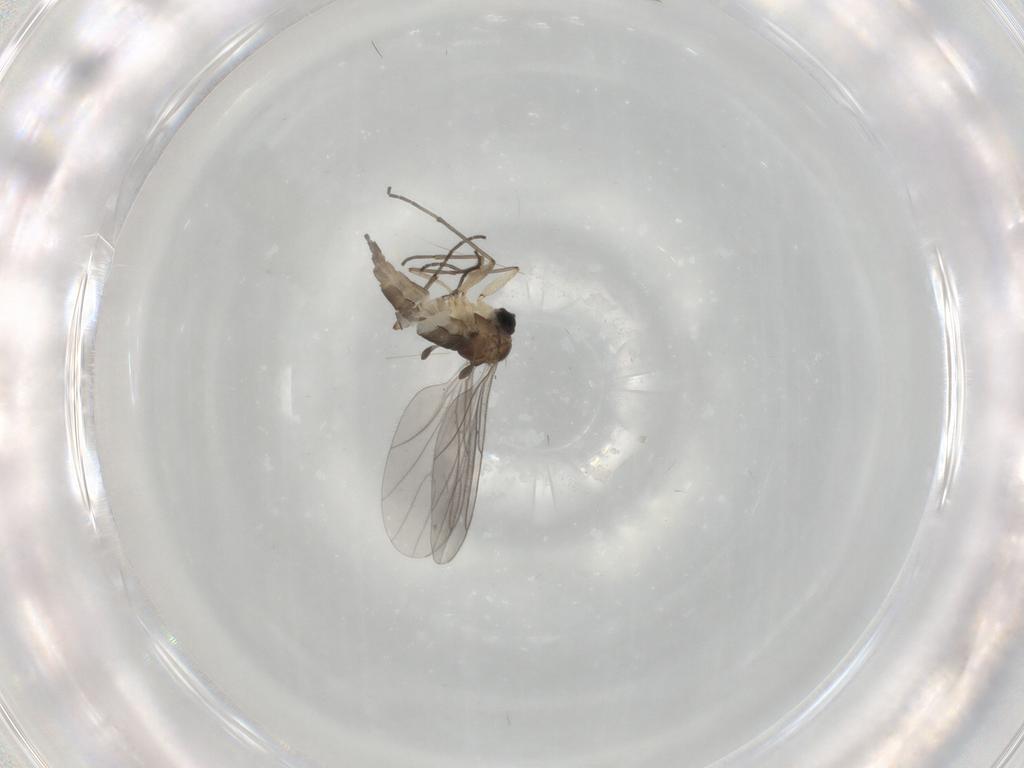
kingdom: Animalia
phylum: Arthropoda
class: Insecta
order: Diptera
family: Sciaridae
